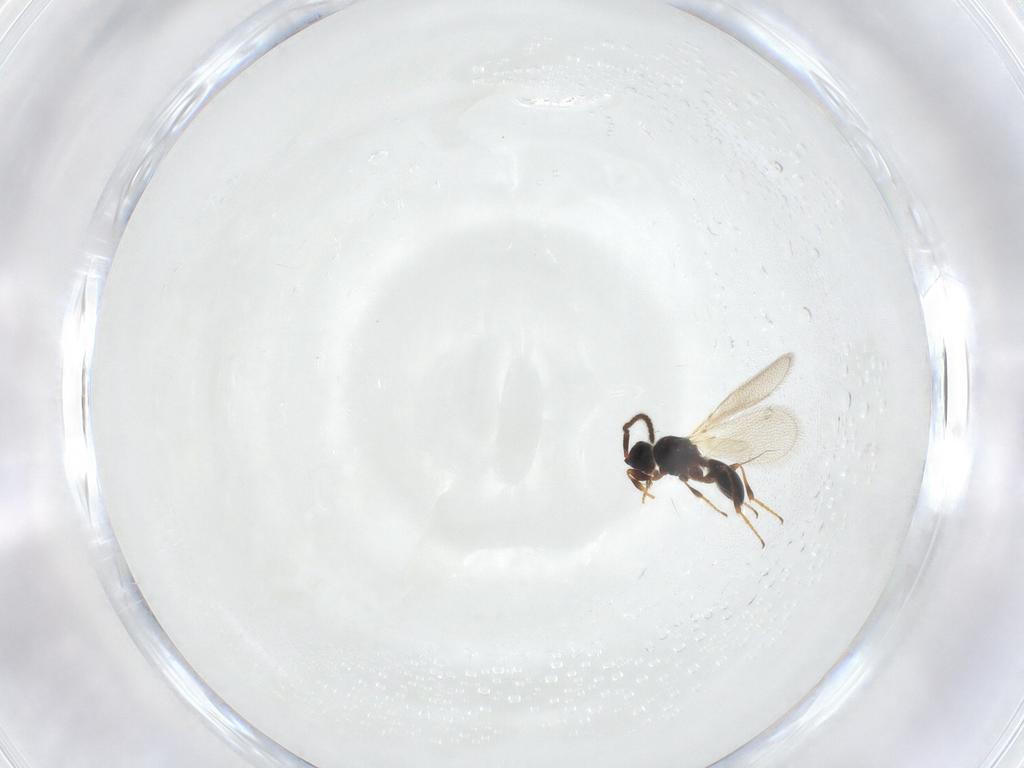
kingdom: Animalia
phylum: Arthropoda
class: Insecta
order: Hymenoptera
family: Diapriidae
